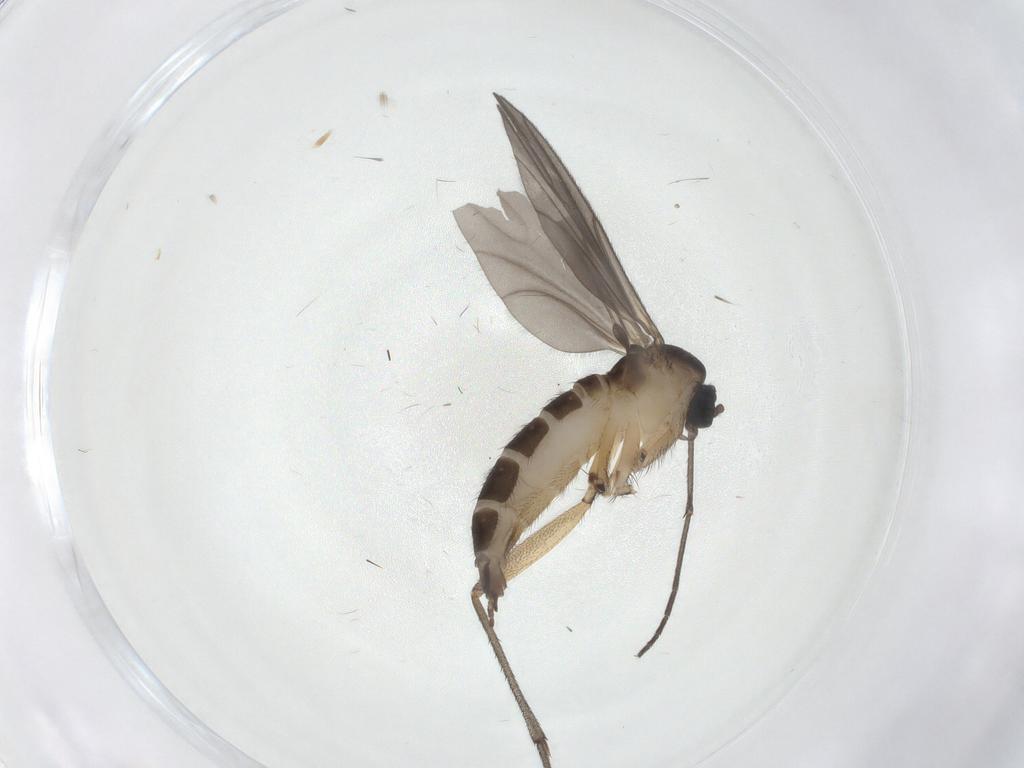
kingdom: Animalia
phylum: Arthropoda
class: Insecta
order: Diptera
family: Sciaridae
